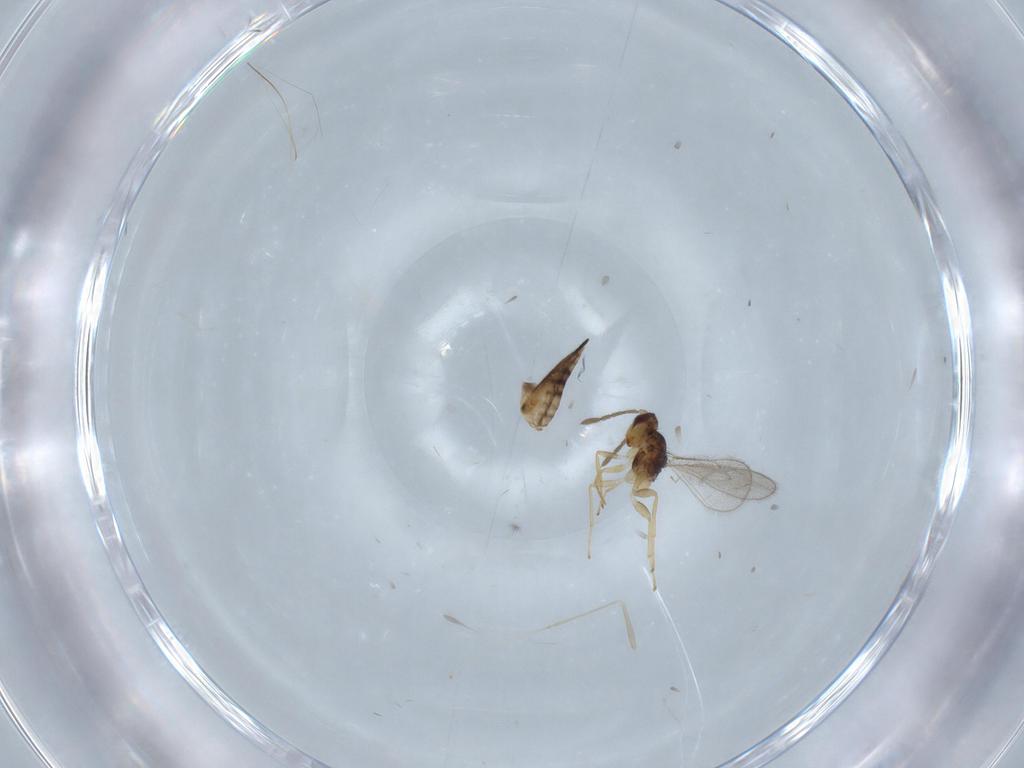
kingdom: Animalia
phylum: Arthropoda
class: Insecta
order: Hymenoptera
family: Eulophidae
